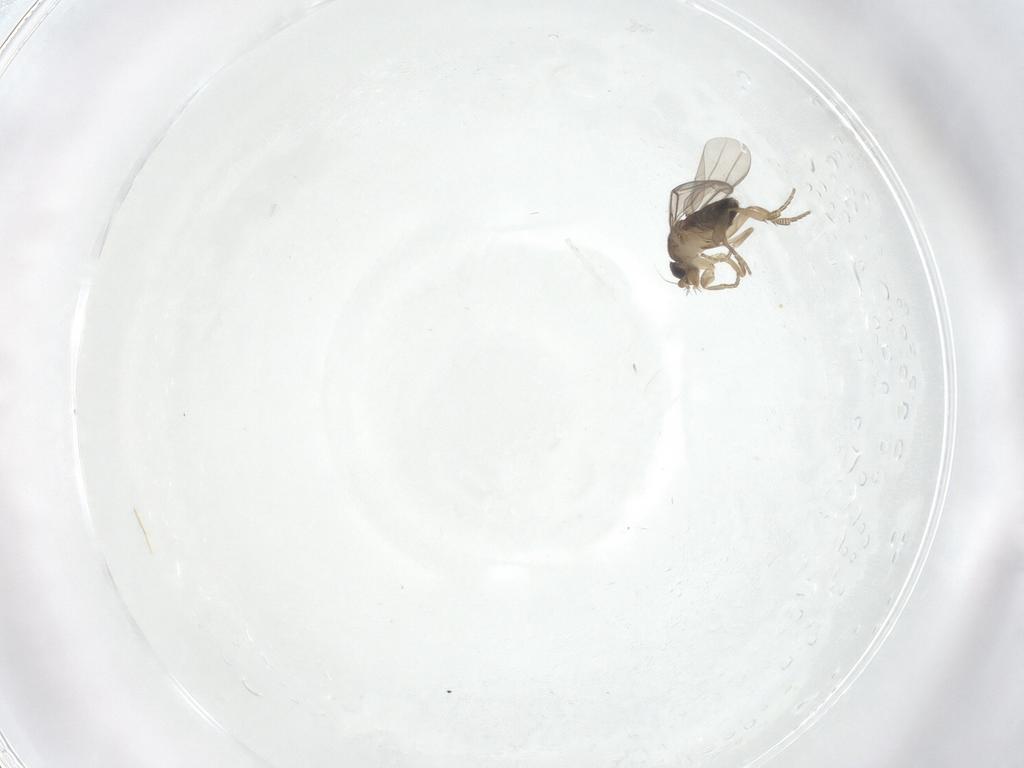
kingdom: Animalia
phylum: Arthropoda
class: Insecta
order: Diptera
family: Phoridae
